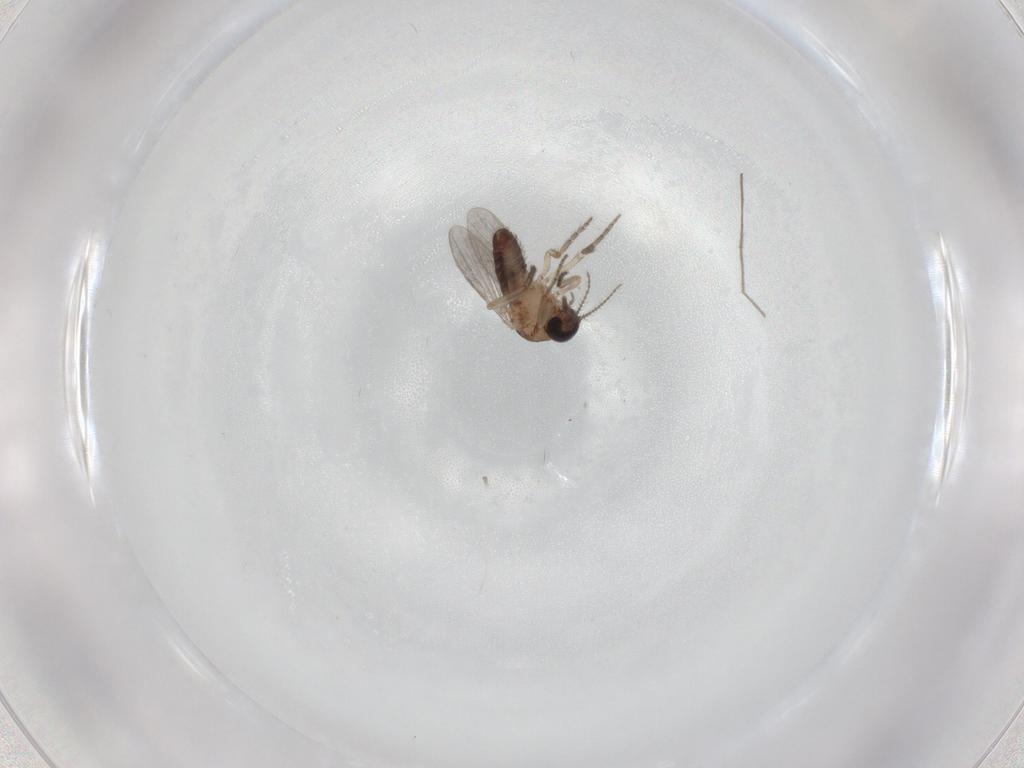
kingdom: Animalia
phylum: Arthropoda
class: Insecta
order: Diptera
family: Ceratopogonidae
